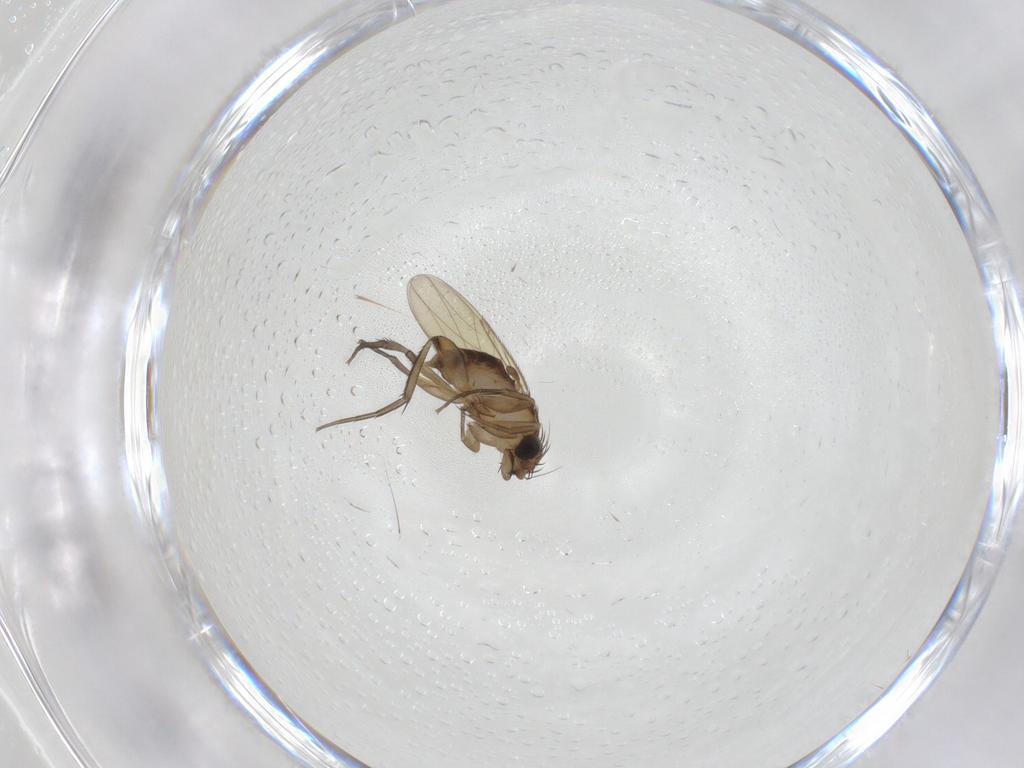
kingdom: Animalia
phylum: Arthropoda
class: Insecta
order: Diptera
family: Phoridae
